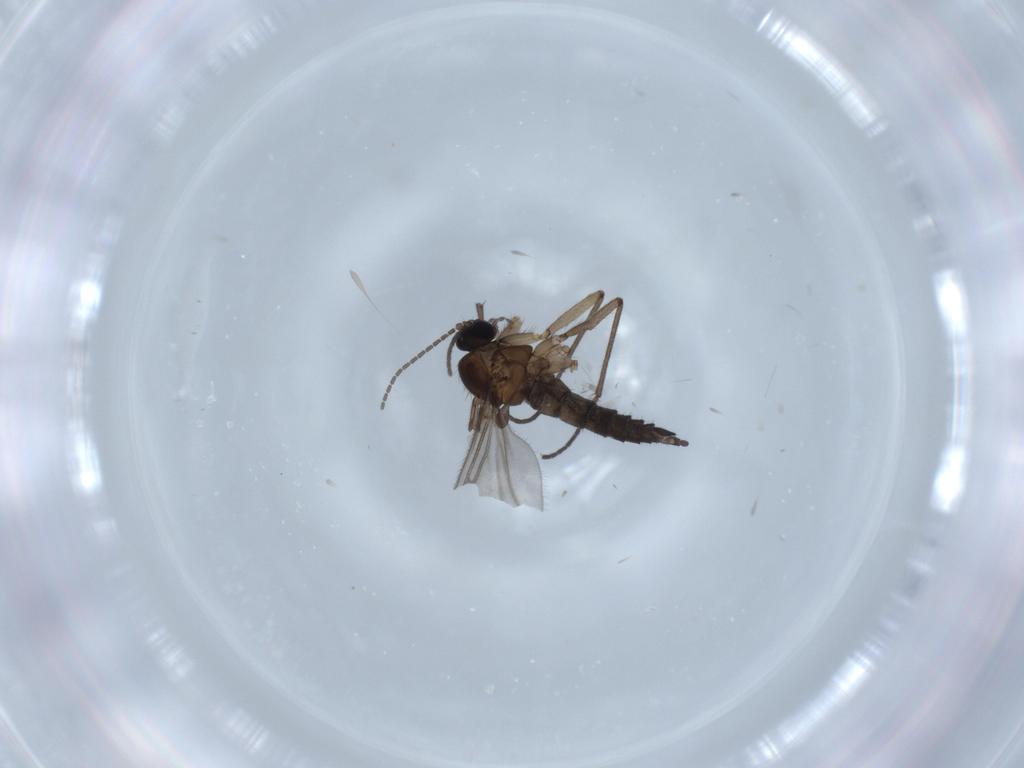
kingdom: Animalia
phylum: Arthropoda
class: Insecta
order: Diptera
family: Sciaridae
